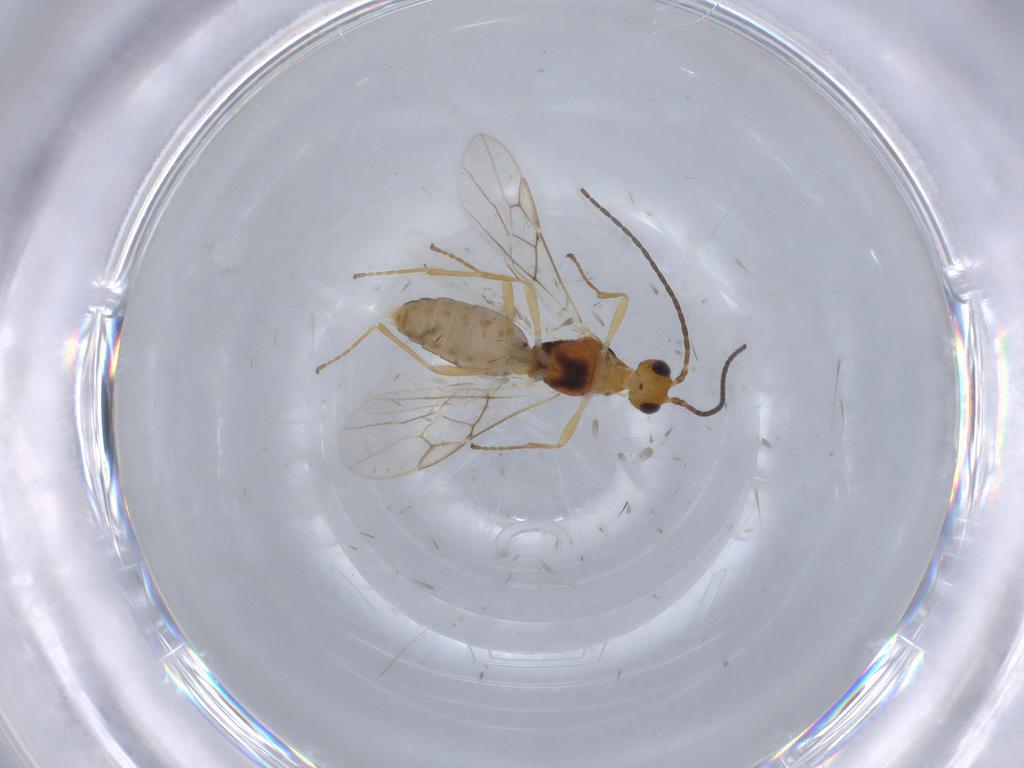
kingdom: Animalia
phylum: Arthropoda
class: Insecta
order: Hymenoptera
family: Braconidae
